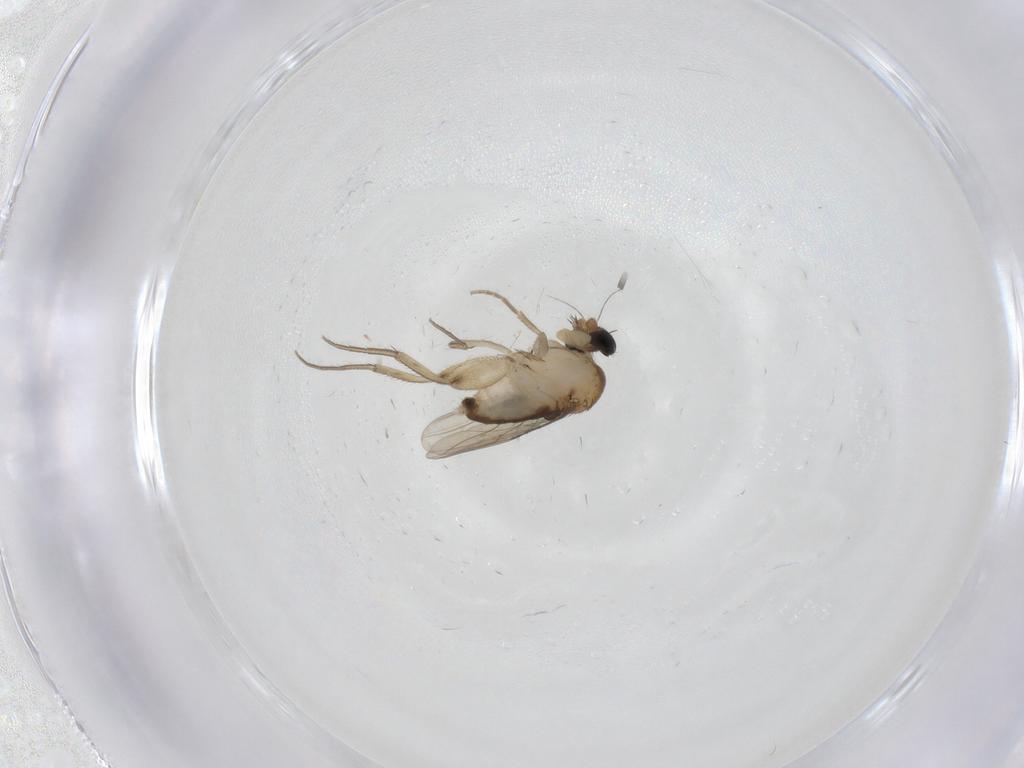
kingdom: Animalia
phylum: Arthropoda
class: Insecta
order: Diptera
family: Phoridae
